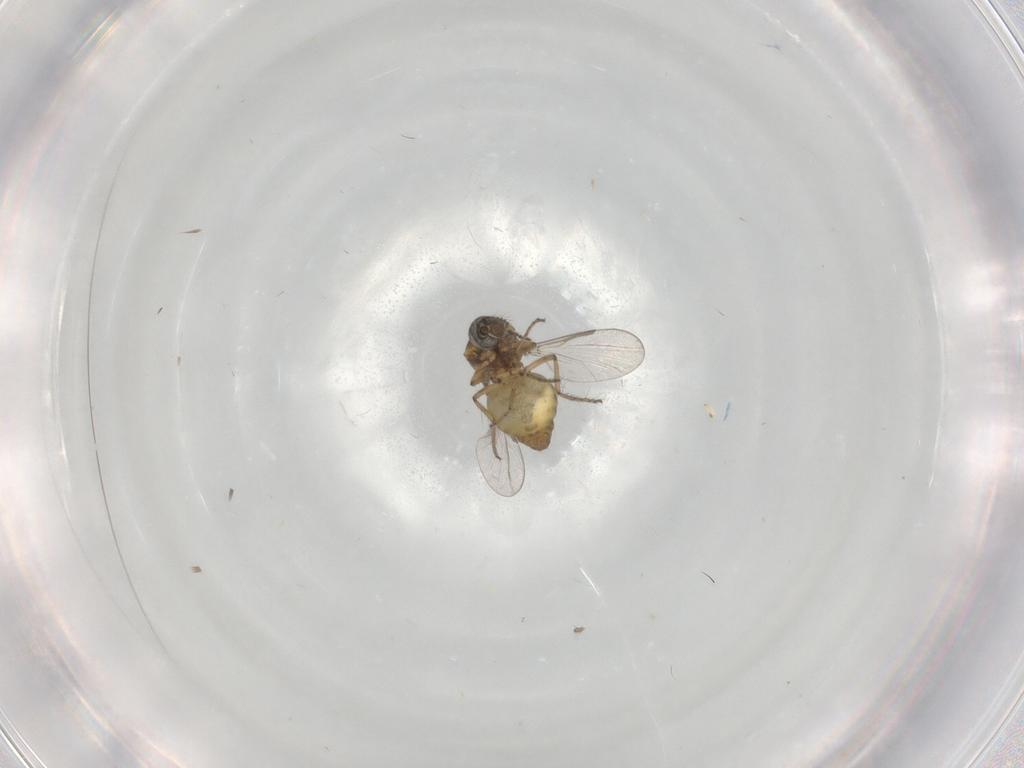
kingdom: Animalia
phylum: Arthropoda
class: Insecta
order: Diptera
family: Ceratopogonidae
